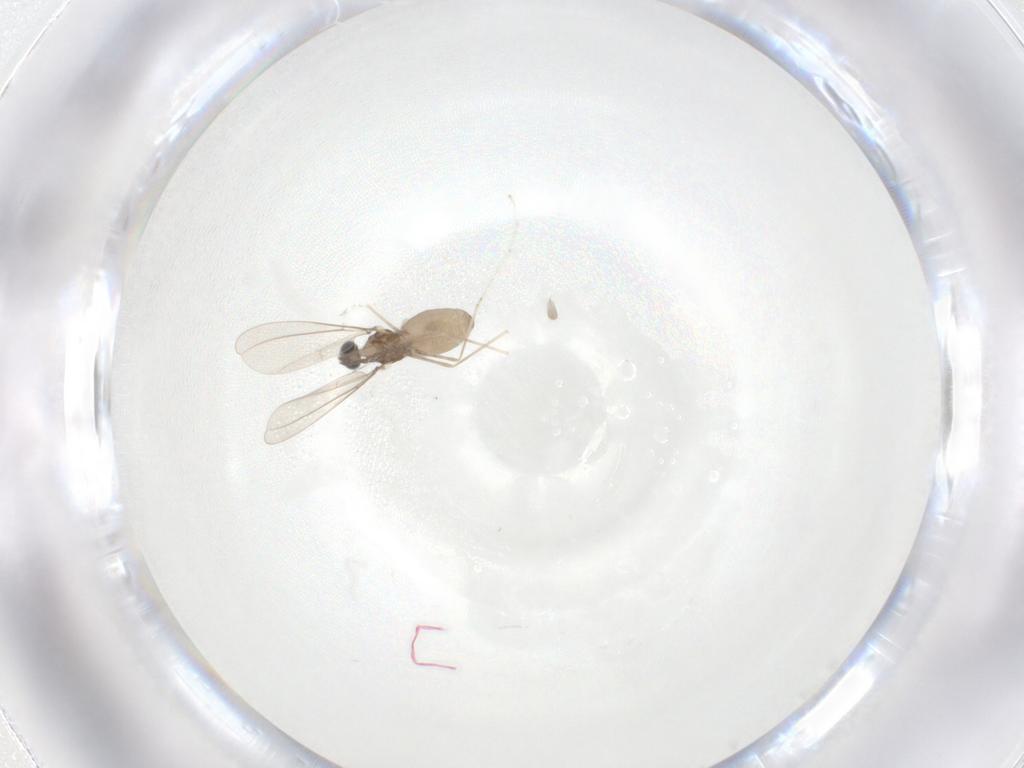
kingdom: Animalia
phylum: Arthropoda
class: Insecta
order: Diptera
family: Cecidomyiidae
